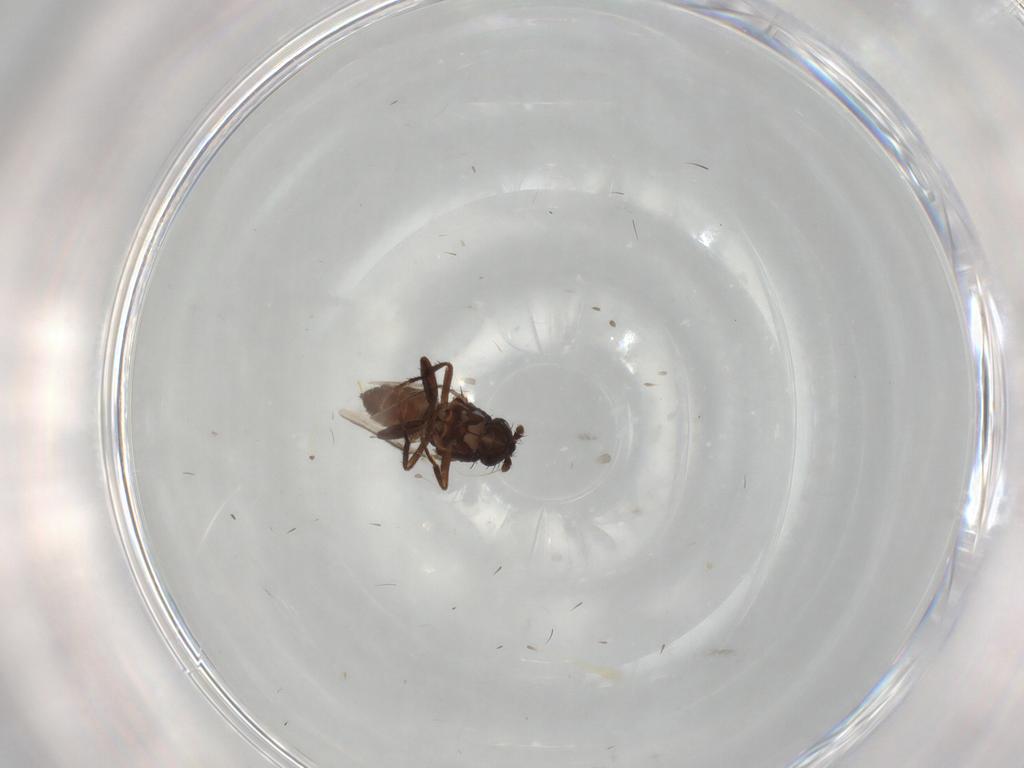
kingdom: Animalia
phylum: Arthropoda
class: Insecta
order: Diptera
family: Sphaeroceridae
